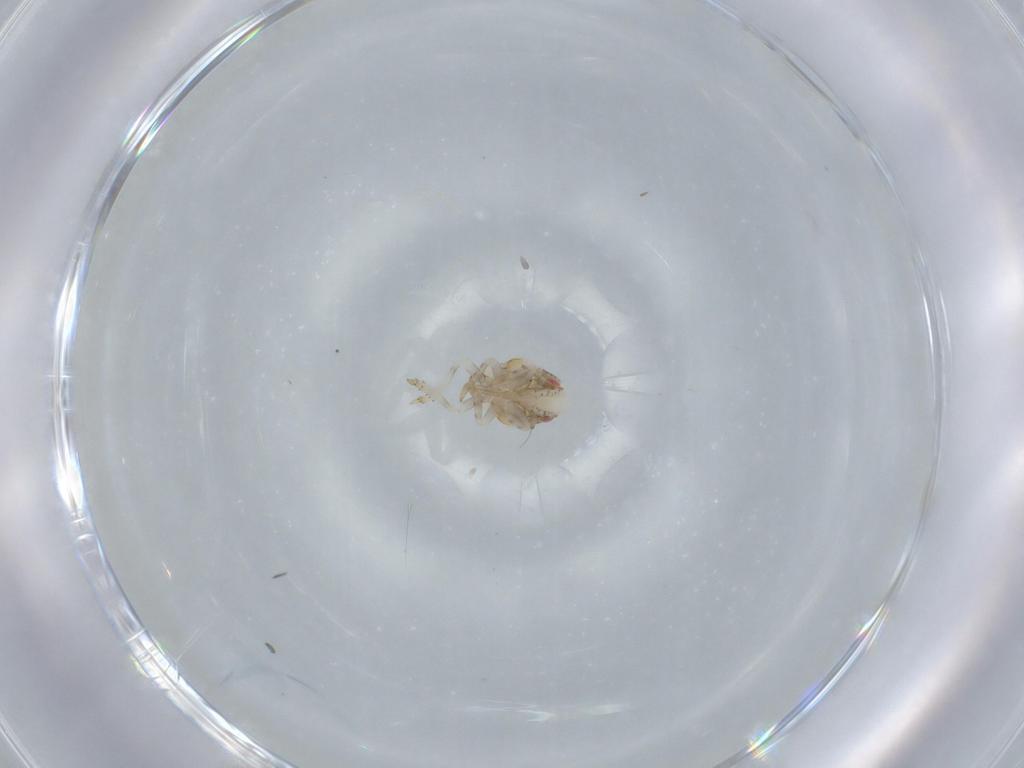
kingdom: Animalia
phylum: Arthropoda
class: Insecta
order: Hemiptera
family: Acanaloniidae
